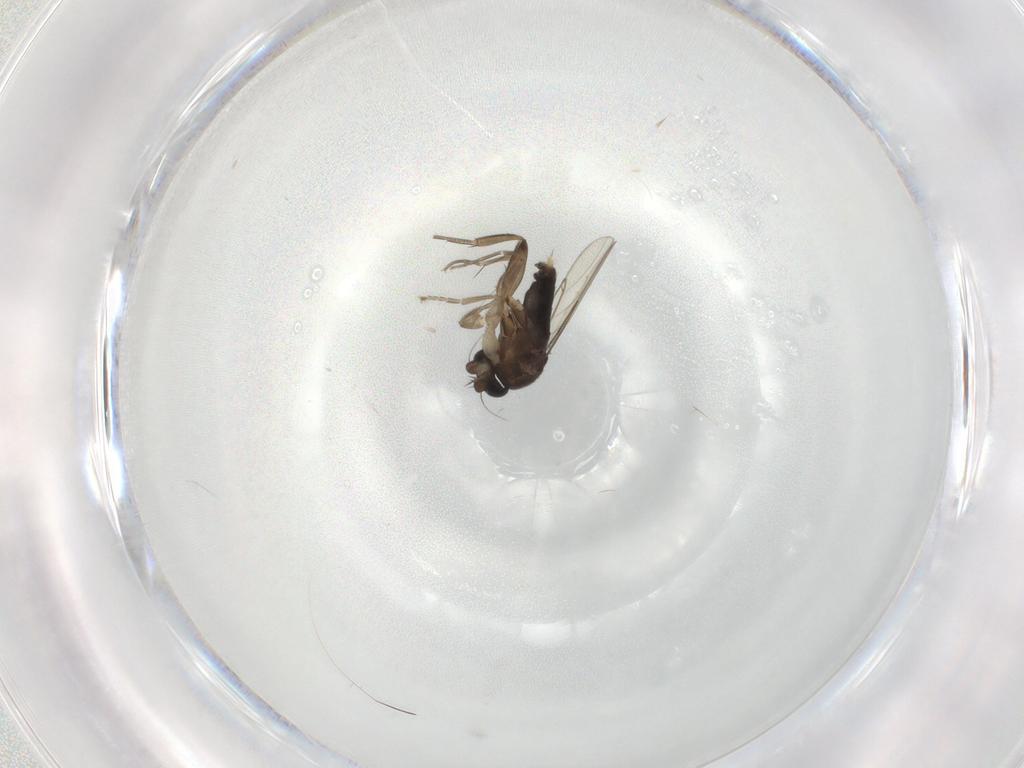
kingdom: Animalia
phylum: Arthropoda
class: Insecta
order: Diptera
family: Phoridae
